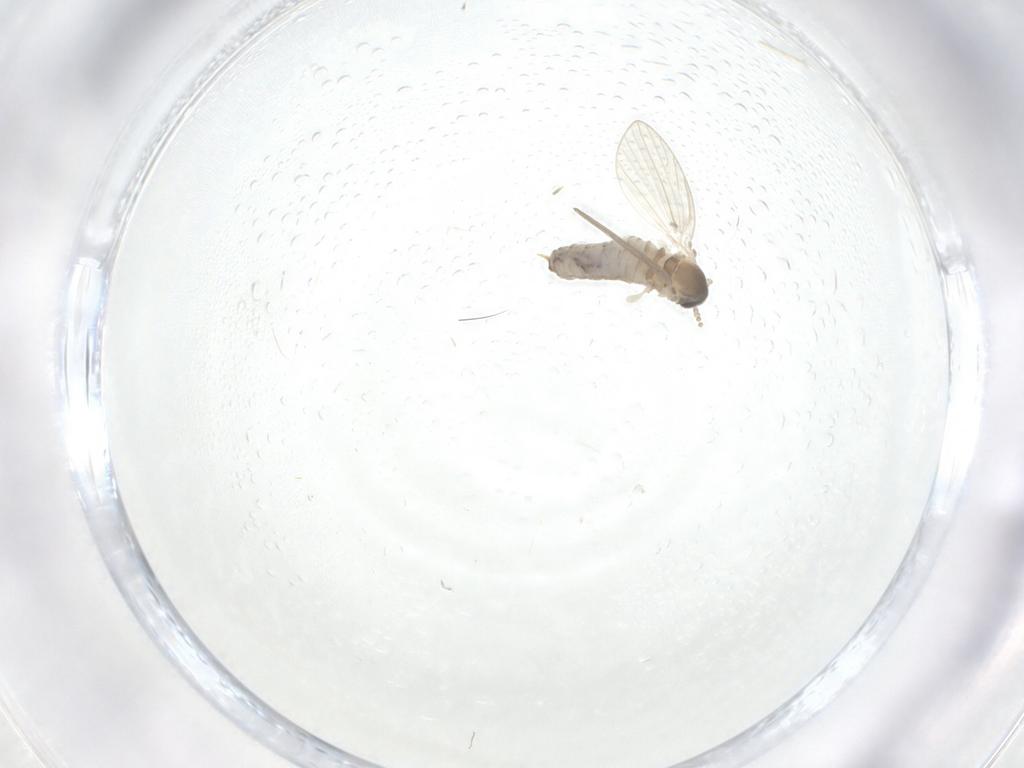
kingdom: Animalia
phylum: Arthropoda
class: Insecta
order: Diptera
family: Psychodidae
